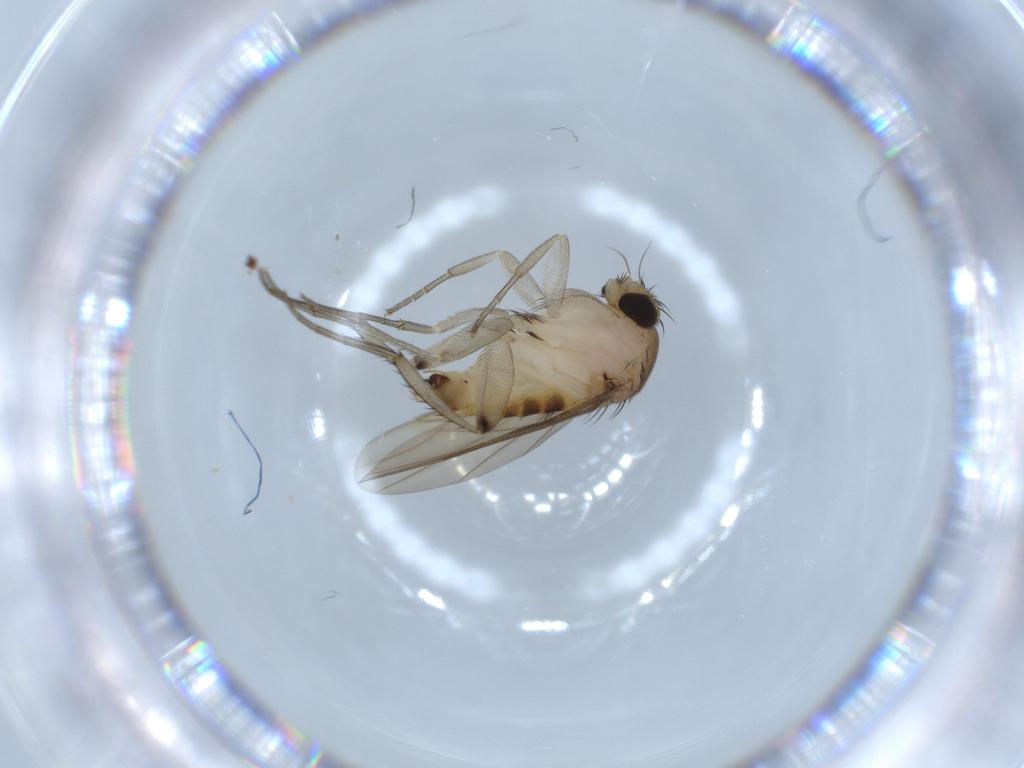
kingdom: Animalia
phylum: Arthropoda
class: Insecta
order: Diptera
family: Phoridae
